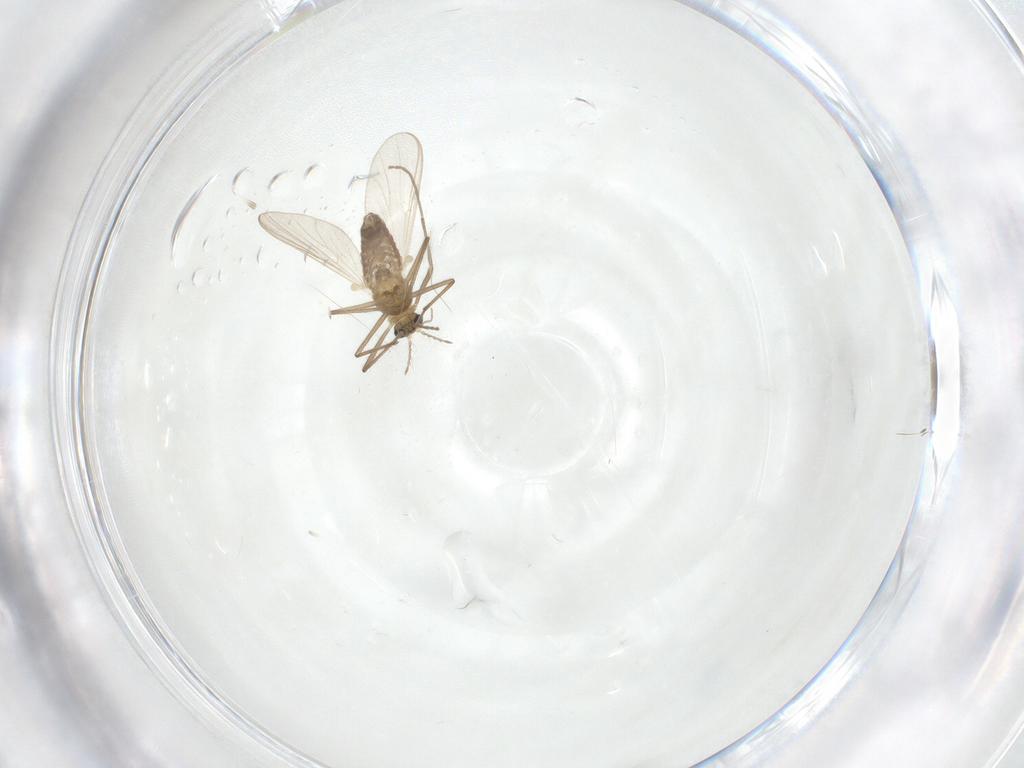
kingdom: Animalia
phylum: Arthropoda
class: Insecta
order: Diptera
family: Chironomidae
